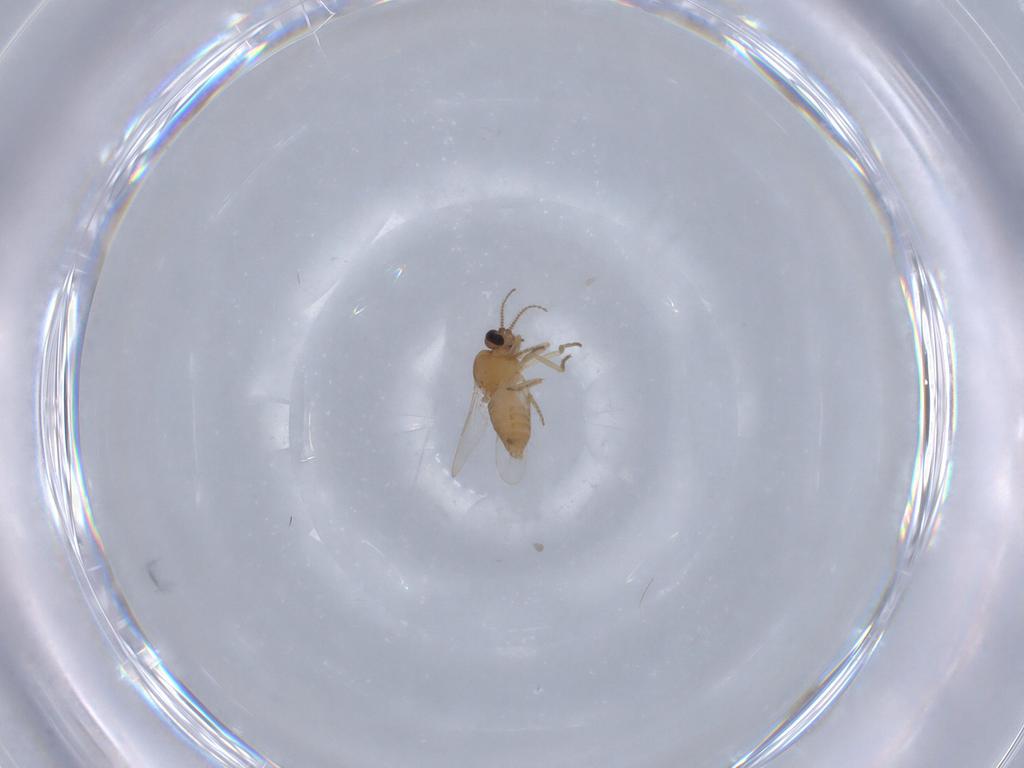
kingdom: Animalia
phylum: Arthropoda
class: Insecta
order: Diptera
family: Ceratopogonidae
